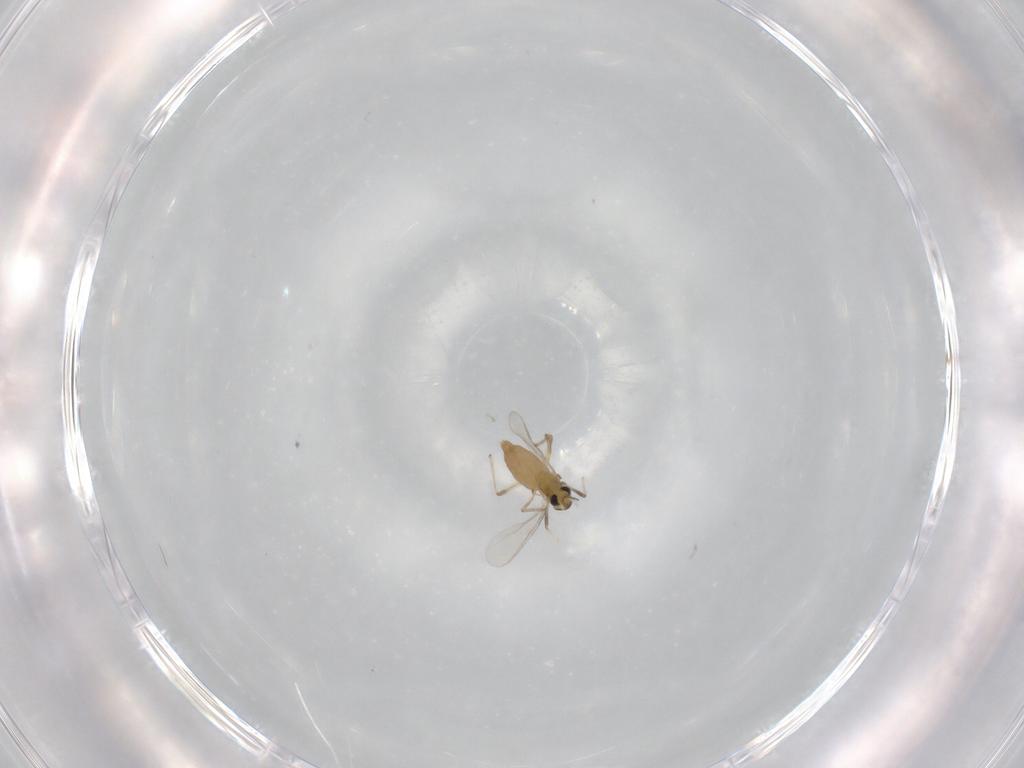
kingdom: Animalia
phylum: Arthropoda
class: Insecta
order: Diptera
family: Chironomidae
